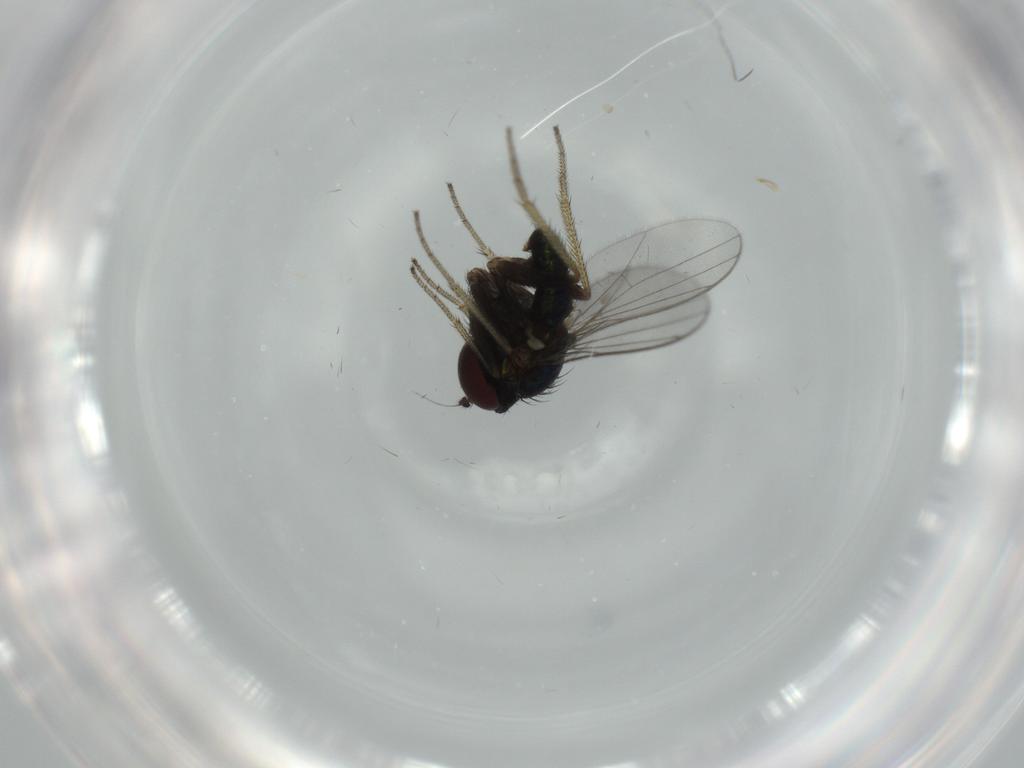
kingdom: Animalia
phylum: Arthropoda
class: Insecta
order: Diptera
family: Dolichopodidae
